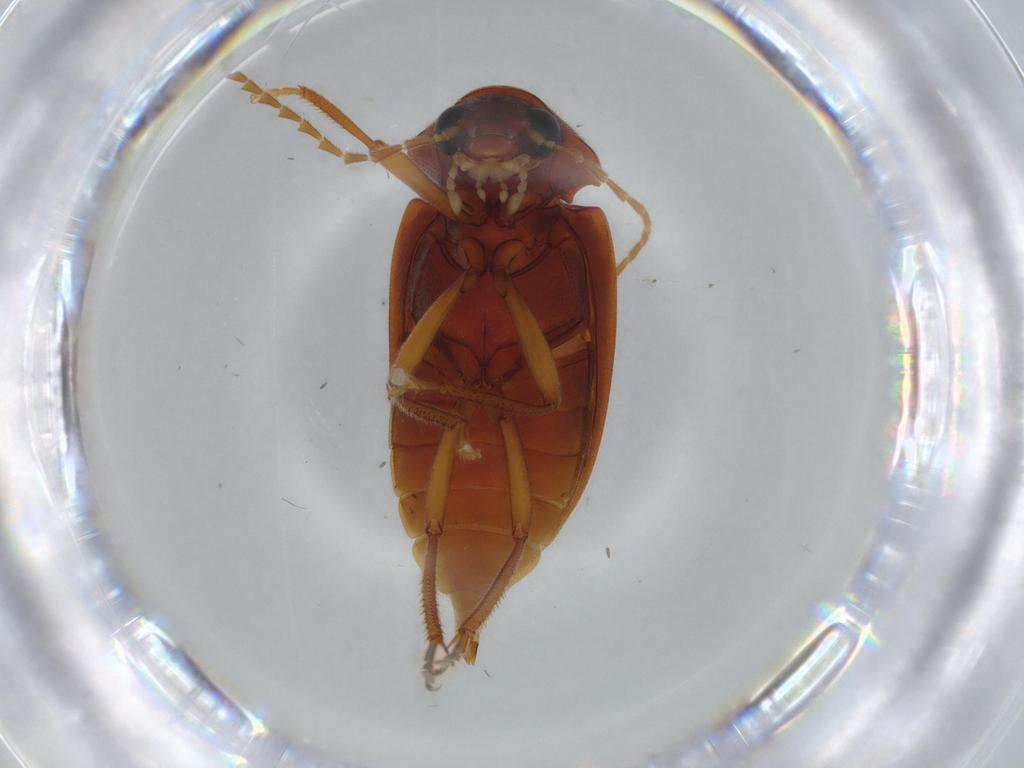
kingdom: Animalia
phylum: Arthropoda
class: Insecta
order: Coleoptera
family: Ptilodactylidae
